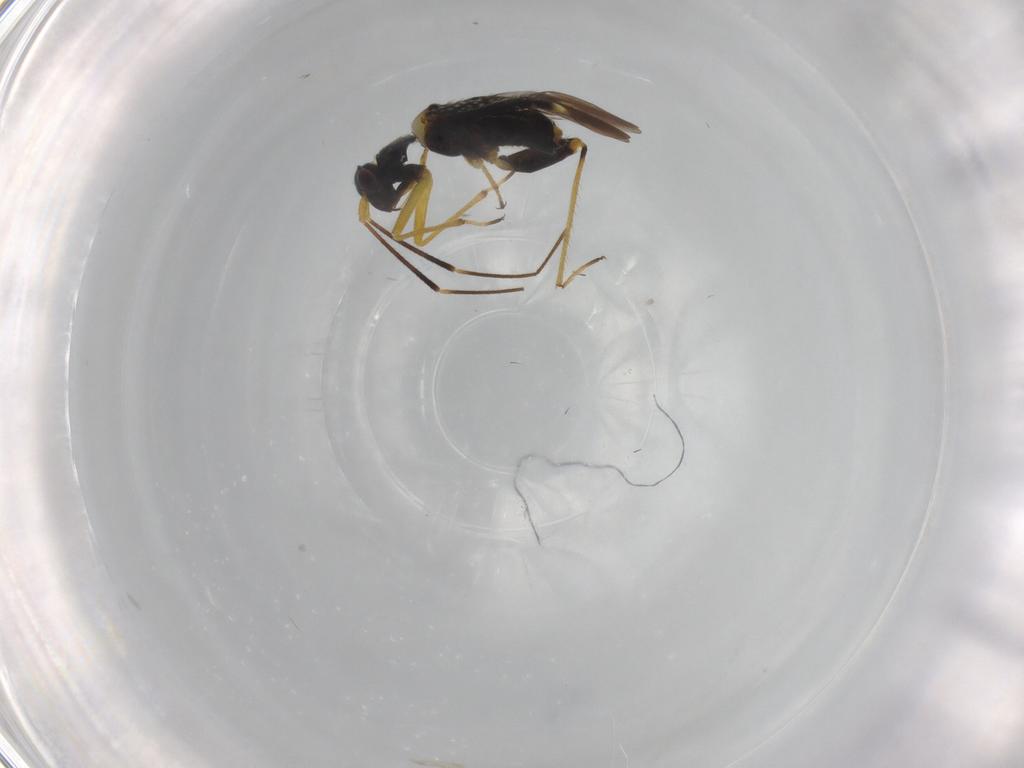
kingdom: Animalia
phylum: Arthropoda
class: Insecta
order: Hemiptera
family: Miridae
